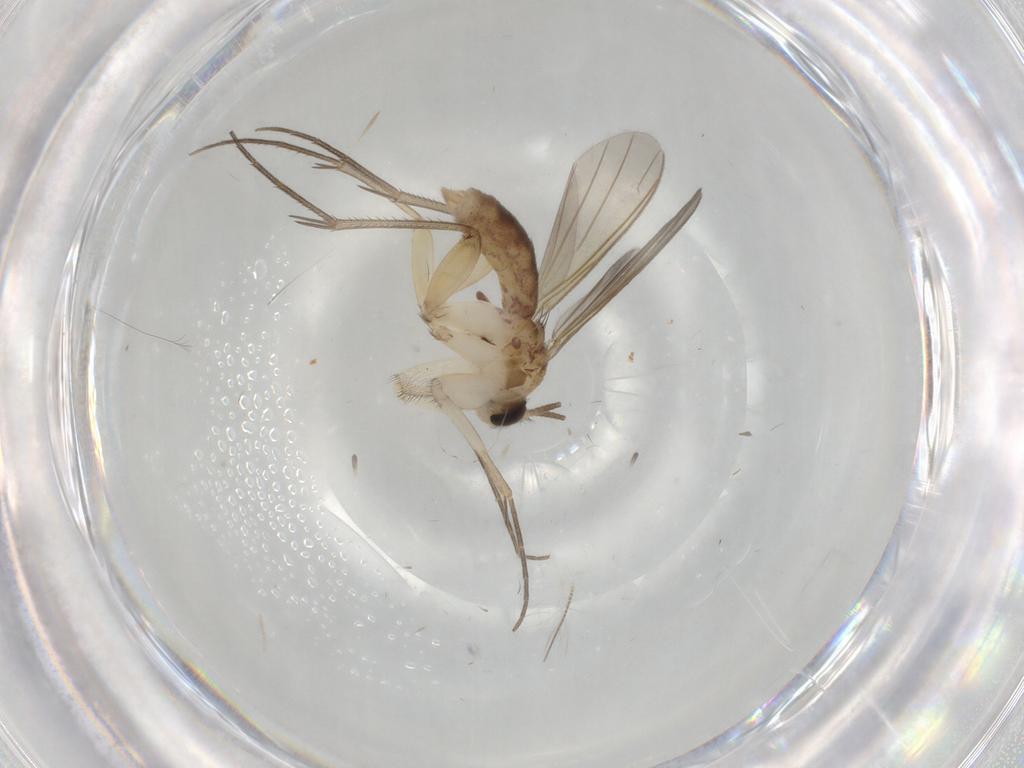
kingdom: Animalia
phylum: Arthropoda
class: Insecta
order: Diptera
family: Mycetophilidae
